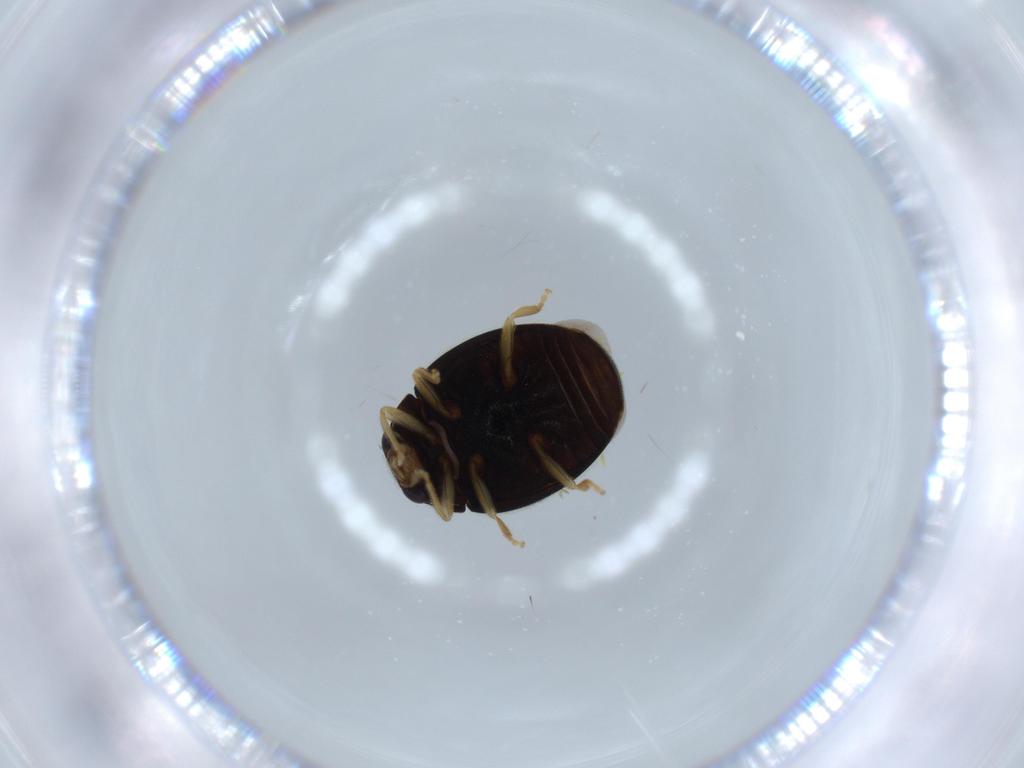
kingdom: Animalia
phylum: Arthropoda
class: Insecta
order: Coleoptera
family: Coccinellidae
